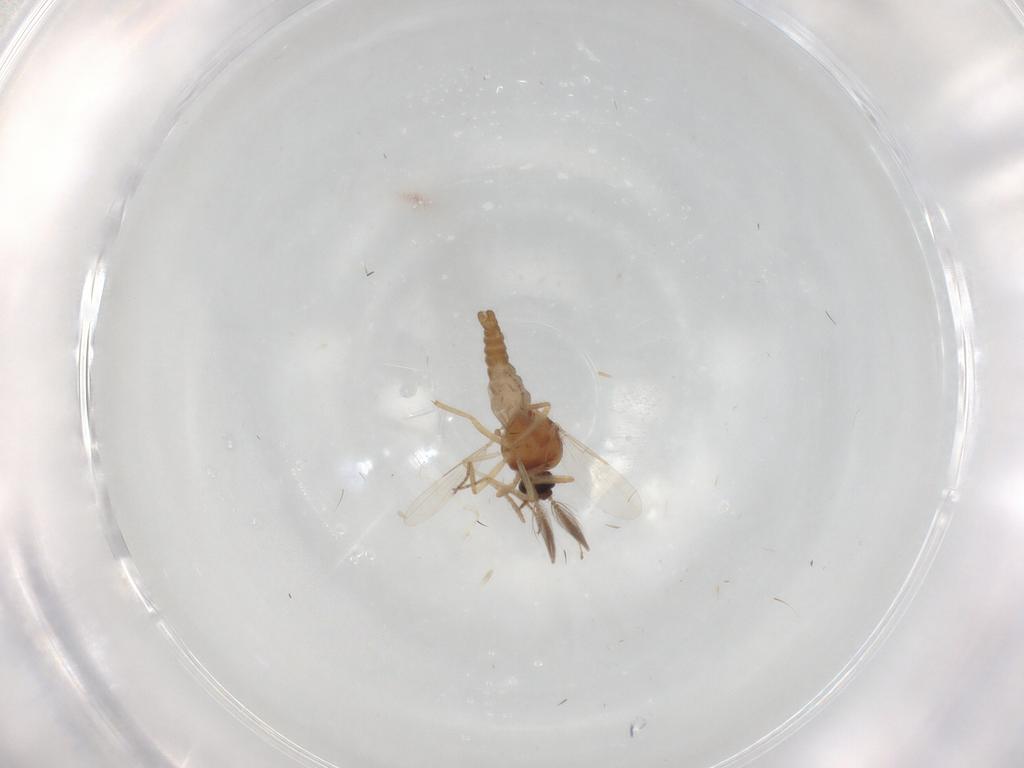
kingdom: Animalia
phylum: Arthropoda
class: Insecta
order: Diptera
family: Ceratopogonidae
